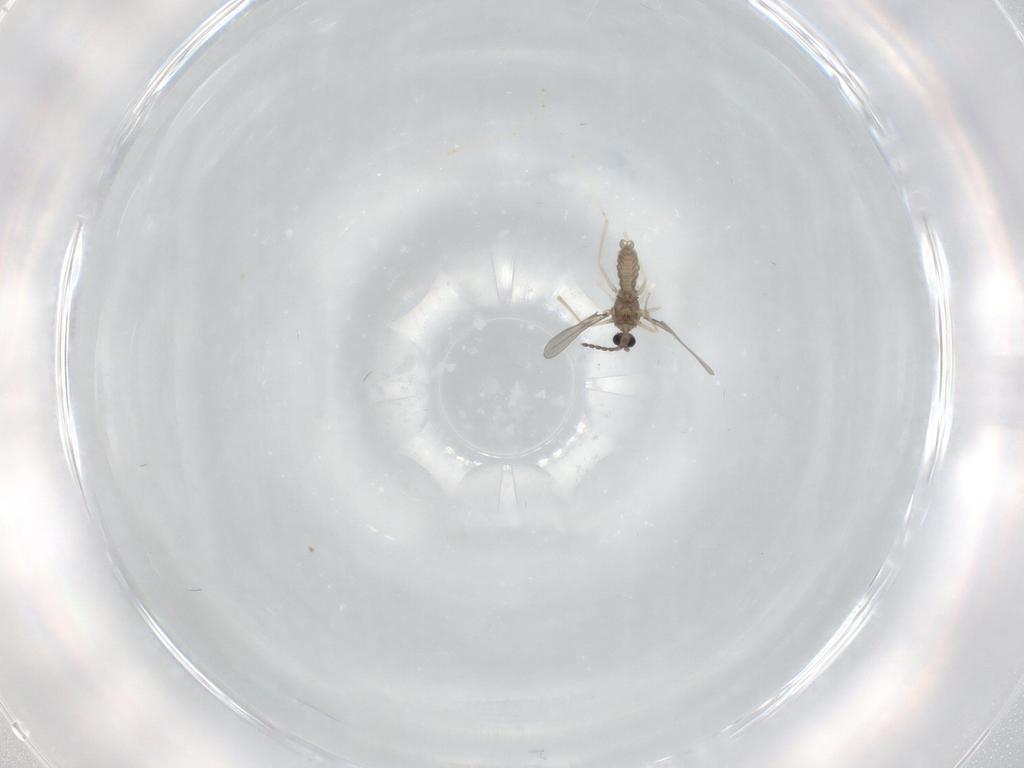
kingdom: Animalia
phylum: Arthropoda
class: Insecta
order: Diptera
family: Cecidomyiidae
